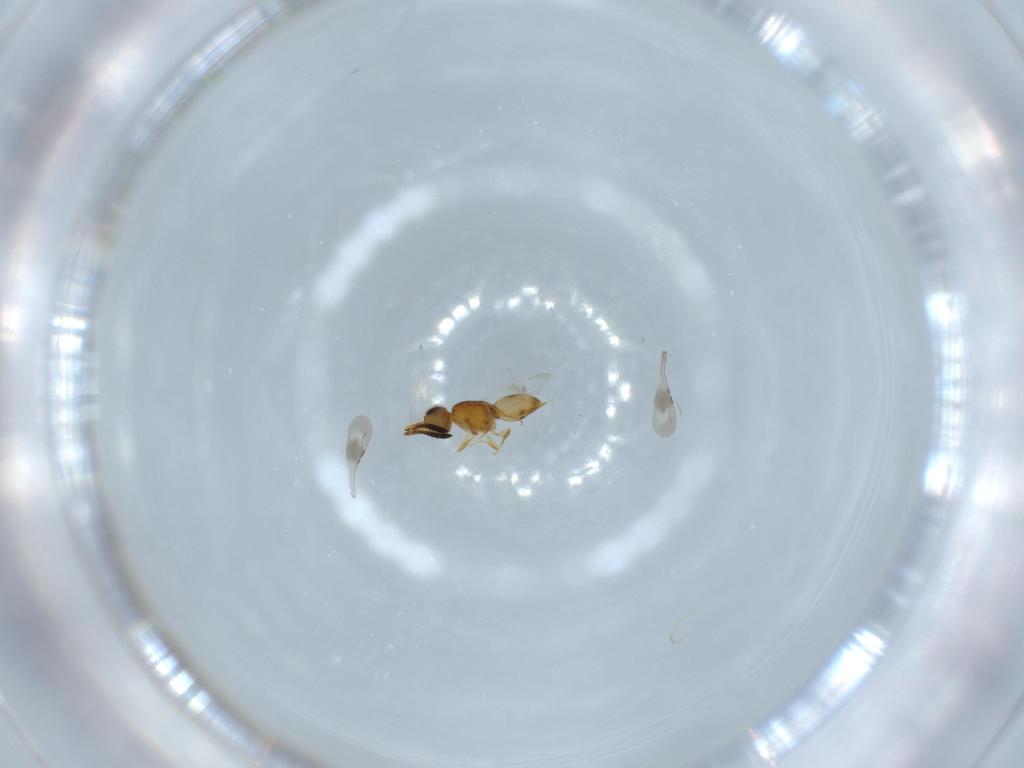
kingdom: Animalia
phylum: Arthropoda
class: Insecta
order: Hymenoptera
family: Ceraphronidae
